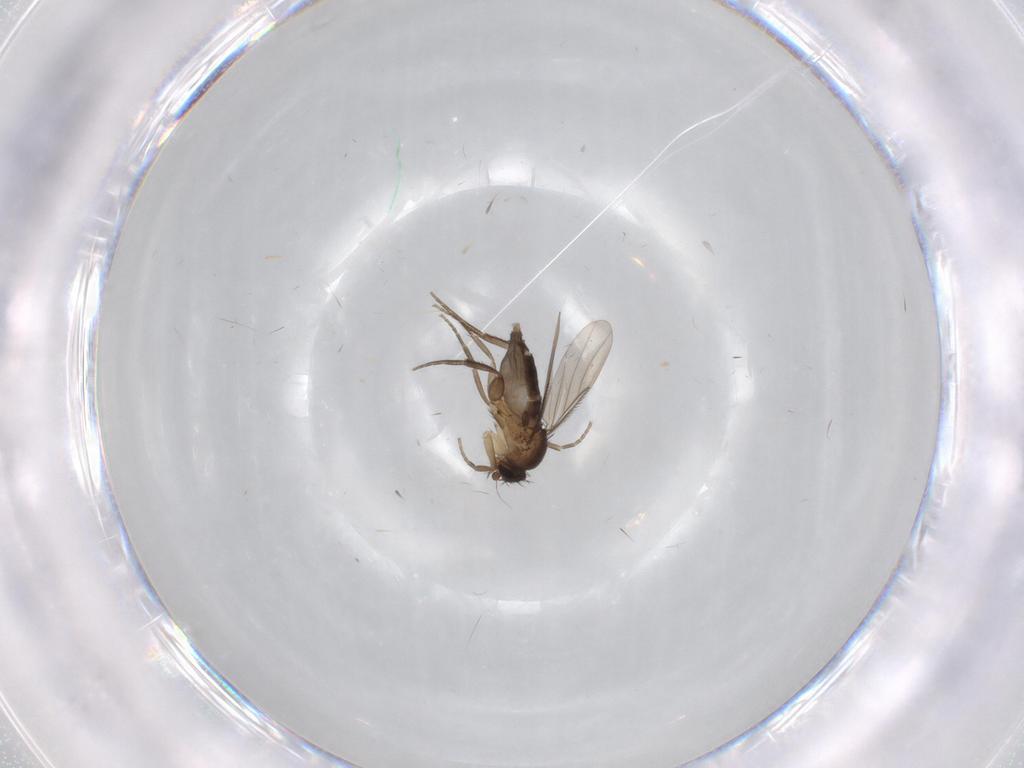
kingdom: Animalia
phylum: Arthropoda
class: Insecta
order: Diptera
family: Phoridae
